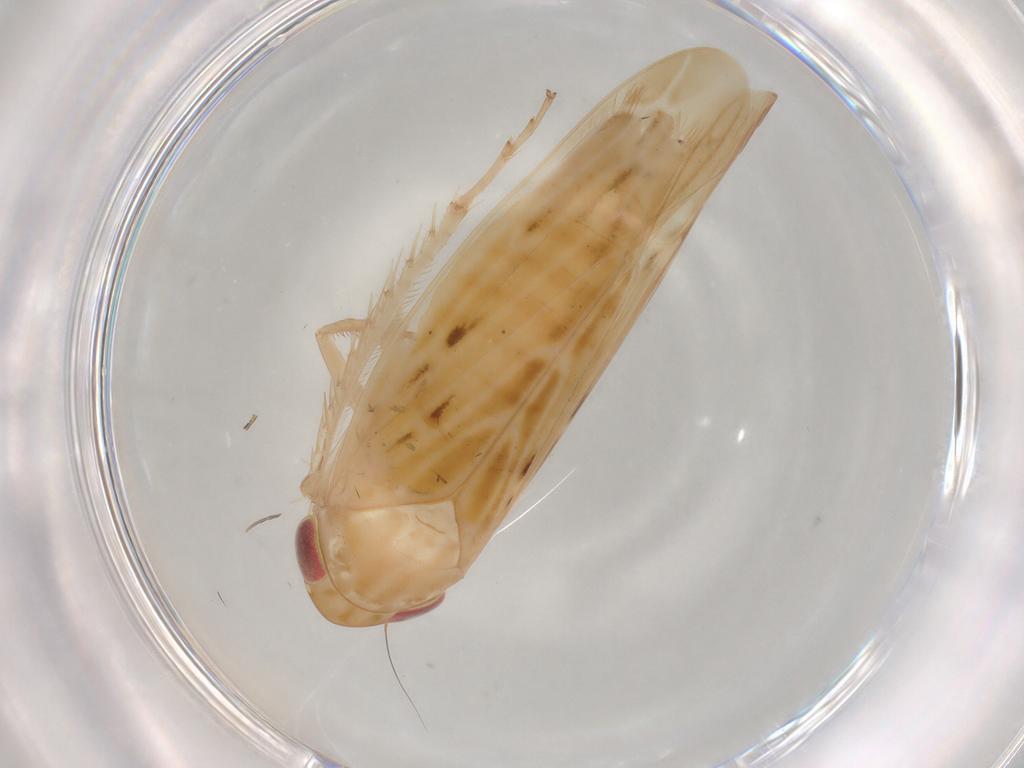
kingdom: Animalia
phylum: Arthropoda
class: Insecta
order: Hemiptera
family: Cicadellidae
